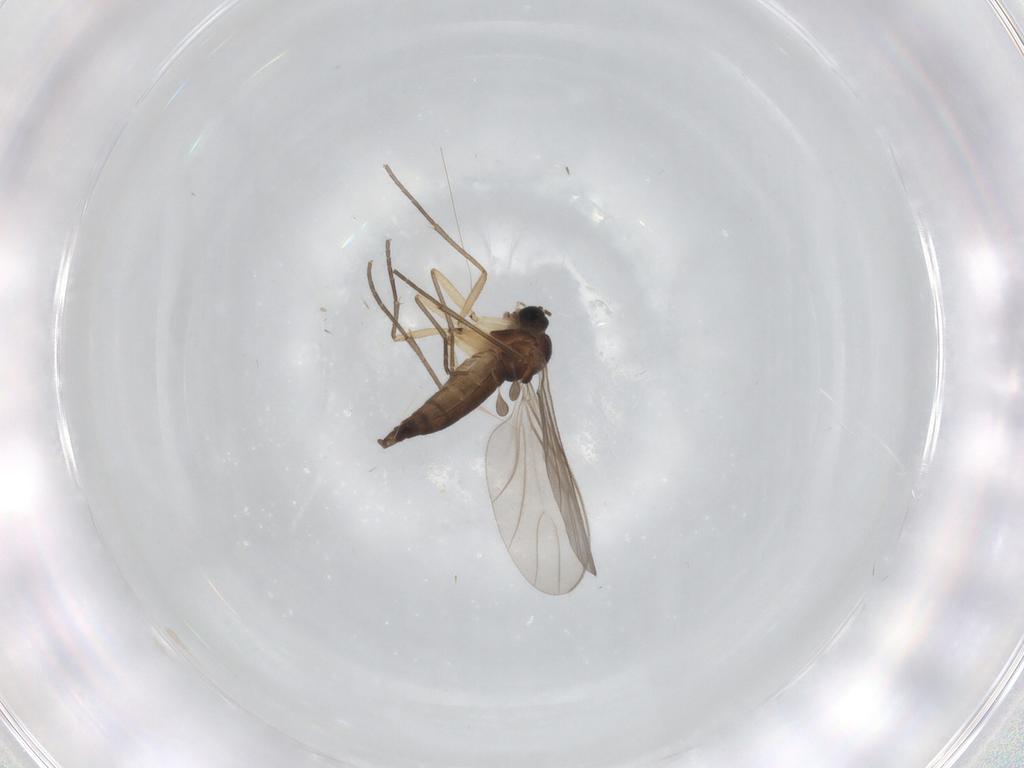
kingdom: Animalia
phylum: Arthropoda
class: Insecta
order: Diptera
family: Sciaridae
